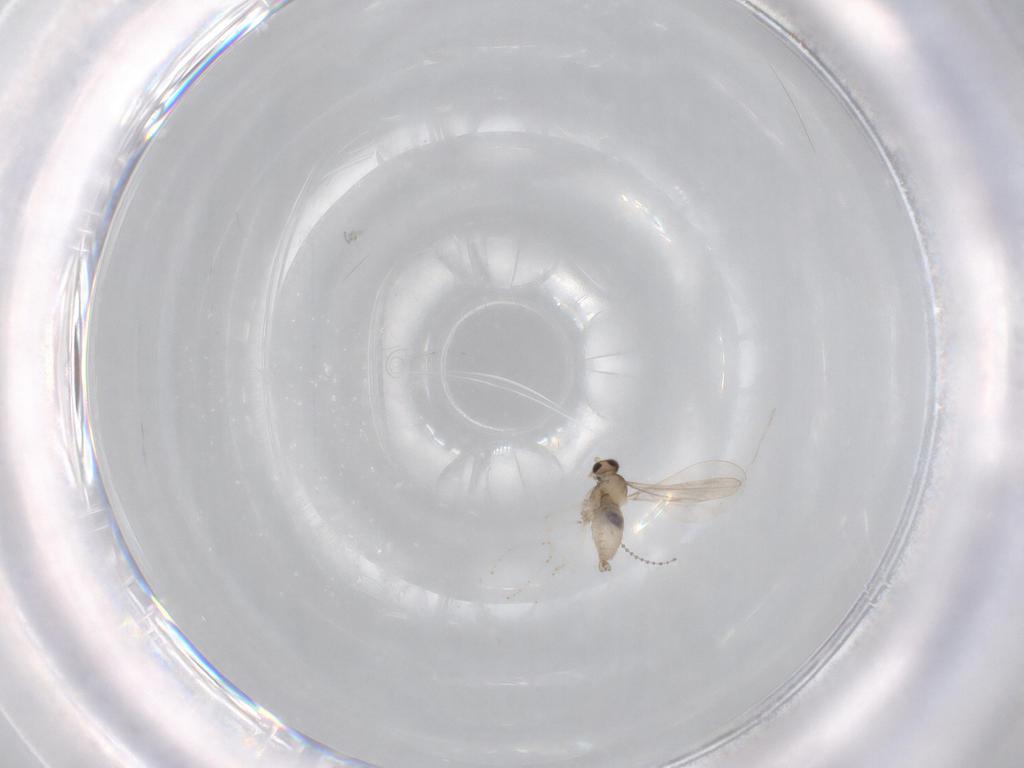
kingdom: Animalia
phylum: Arthropoda
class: Insecta
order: Diptera
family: Cecidomyiidae
